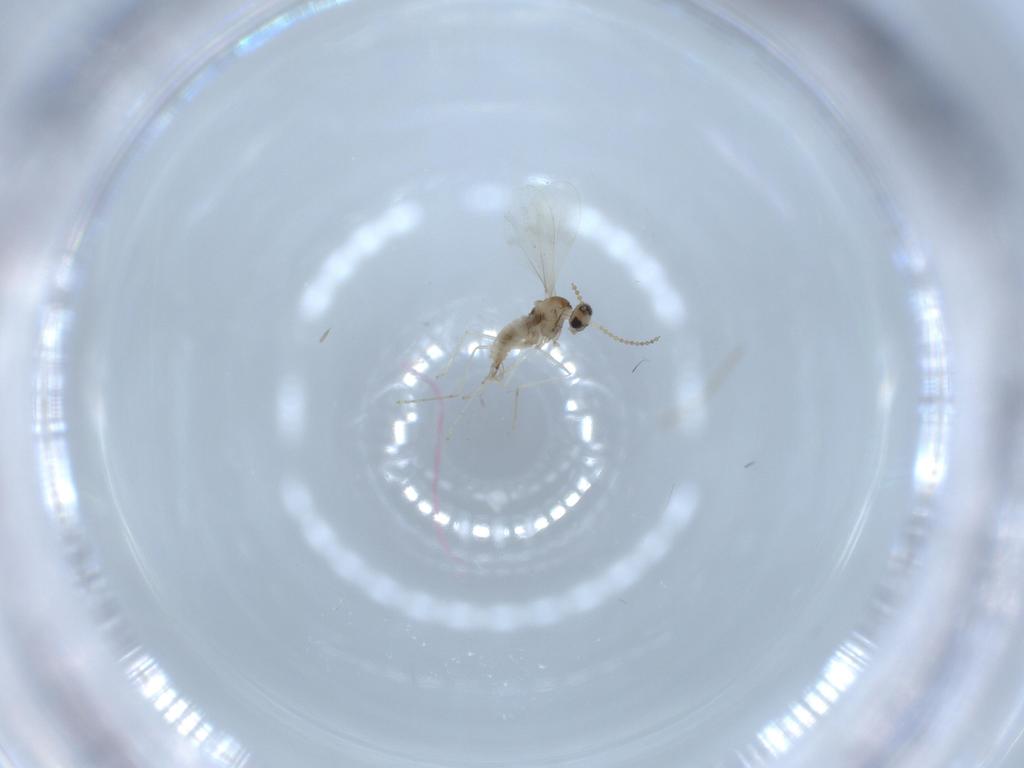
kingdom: Animalia
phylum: Arthropoda
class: Insecta
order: Diptera
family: Cecidomyiidae
